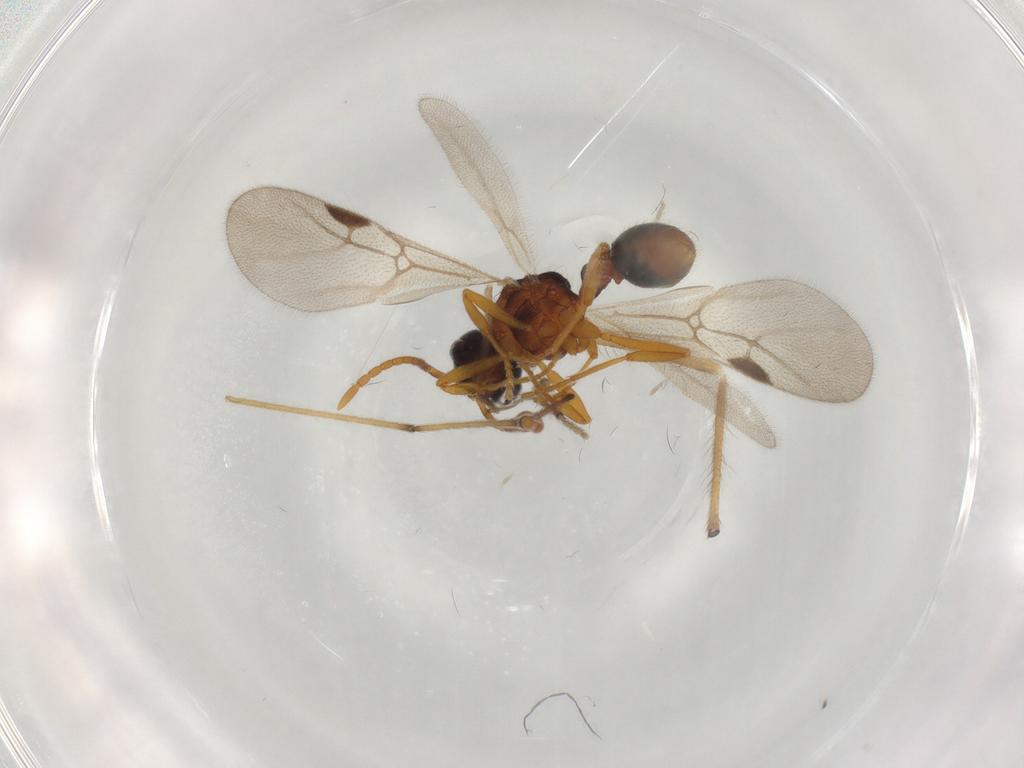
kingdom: Animalia
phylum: Arthropoda
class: Insecta
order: Hymenoptera
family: Formicidae
